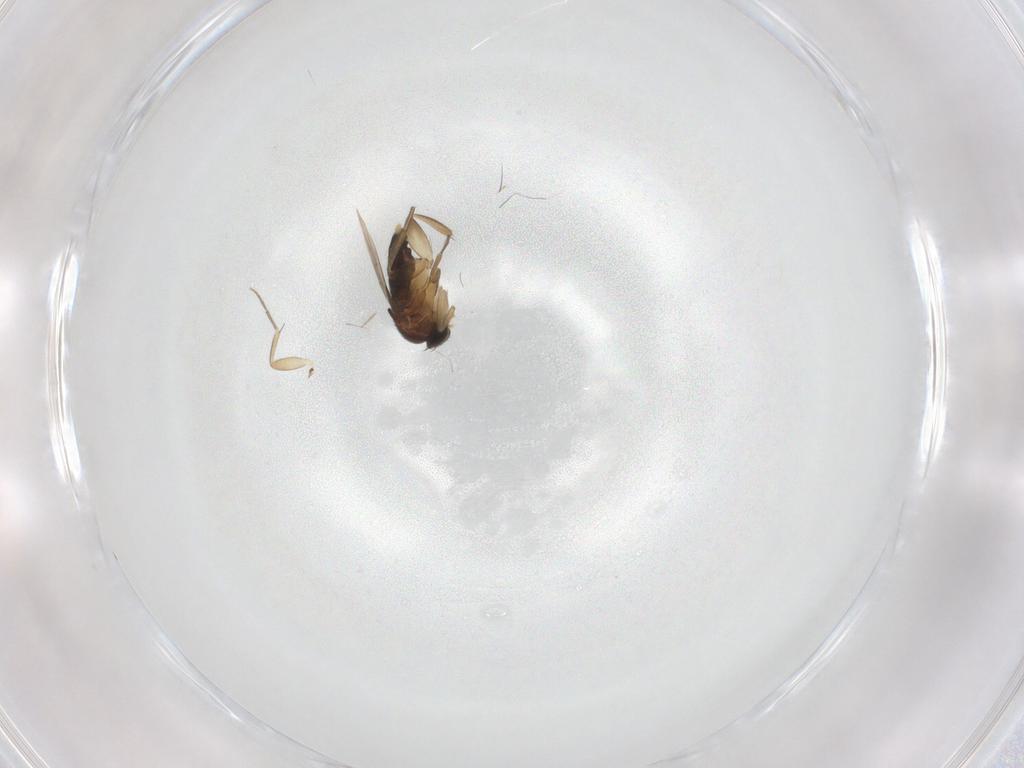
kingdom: Animalia
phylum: Arthropoda
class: Insecta
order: Diptera
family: Phoridae
